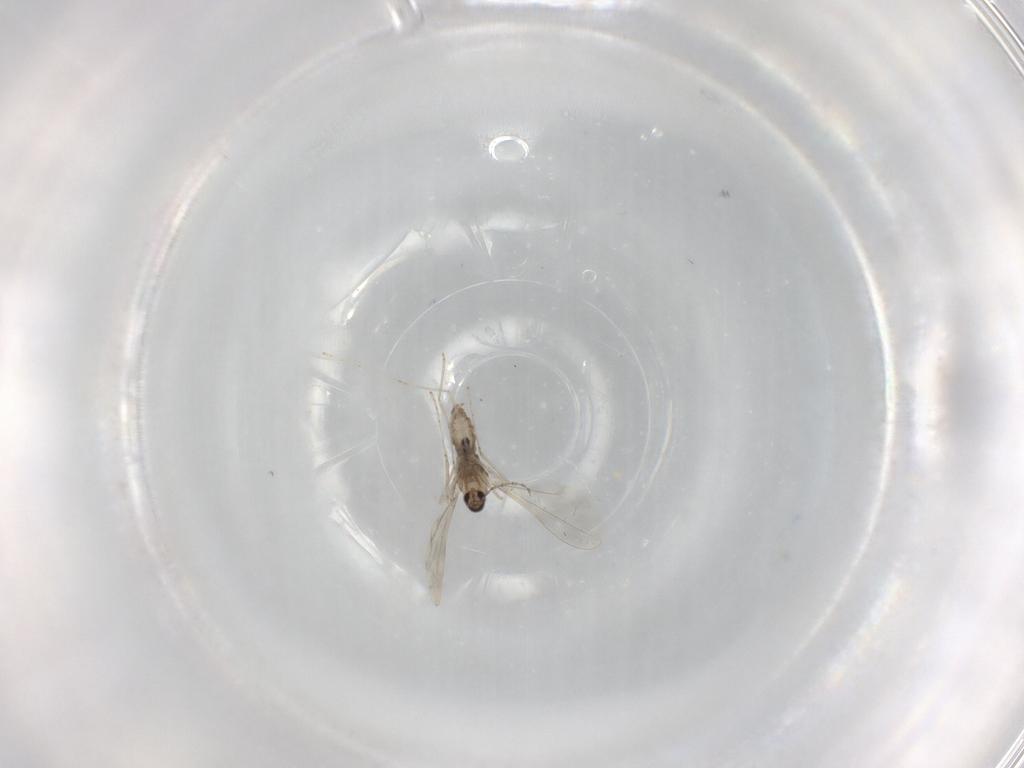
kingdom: Animalia
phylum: Arthropoda
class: Insecta
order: Diptera
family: Cecidomyiidae
